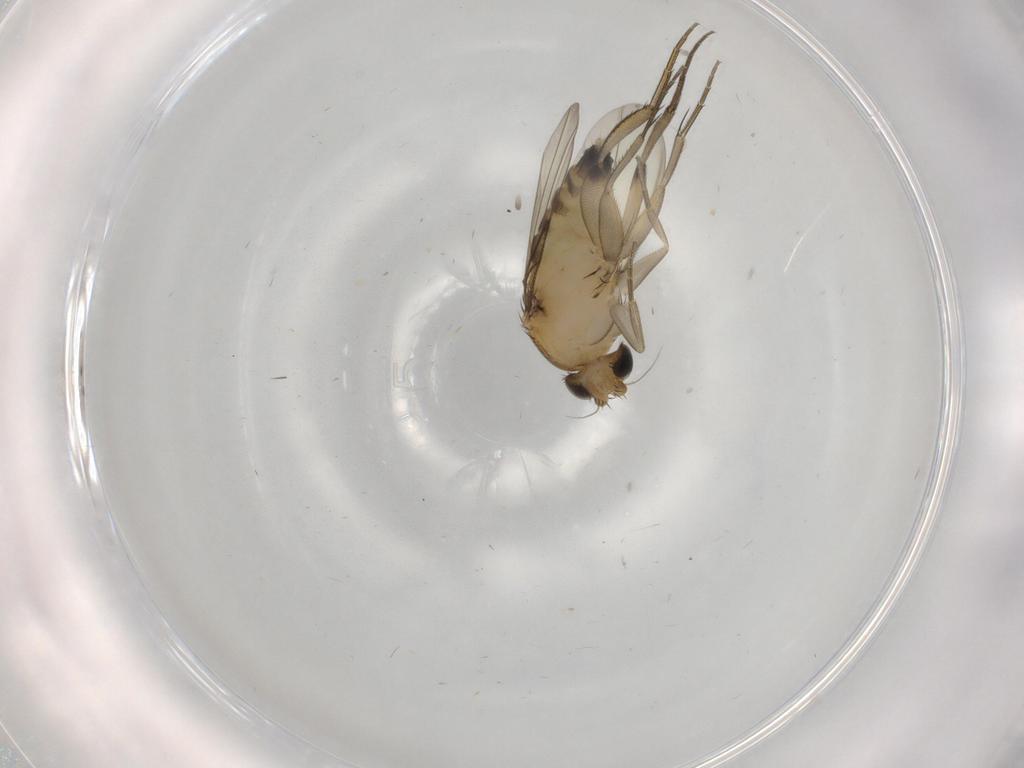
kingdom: Animalia
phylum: Arthropoda
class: Insecta
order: Diptera
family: Phoridae
